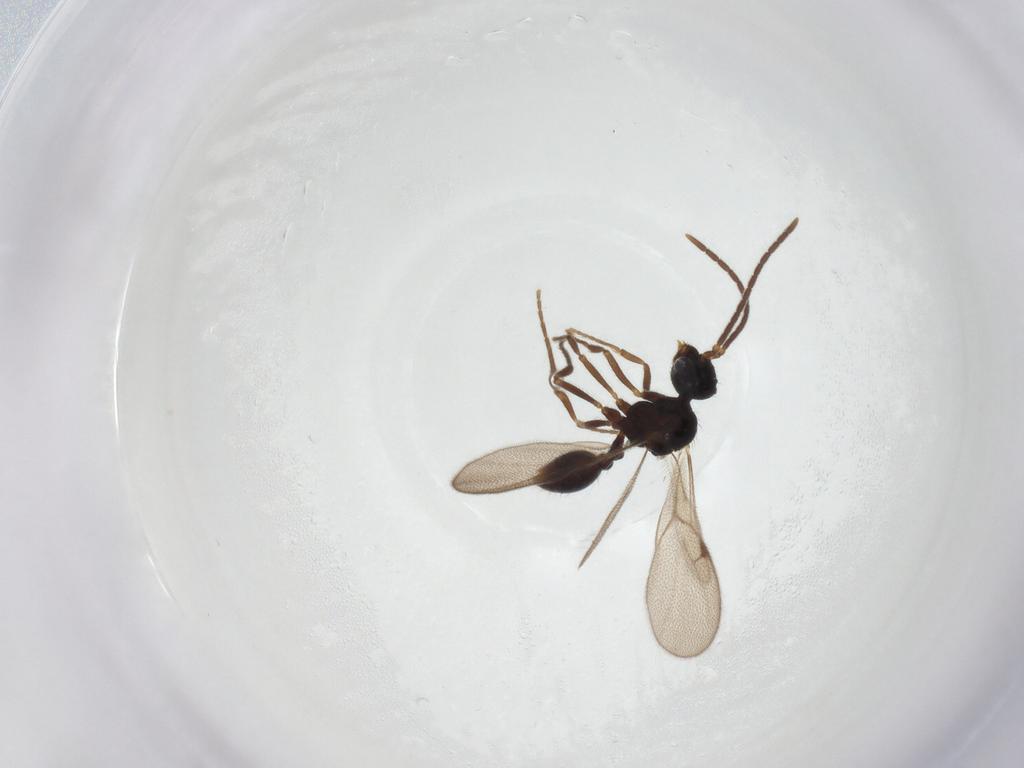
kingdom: Animalia
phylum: Arthropoda
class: Insecta
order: Hymenoptera
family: Formicidae
